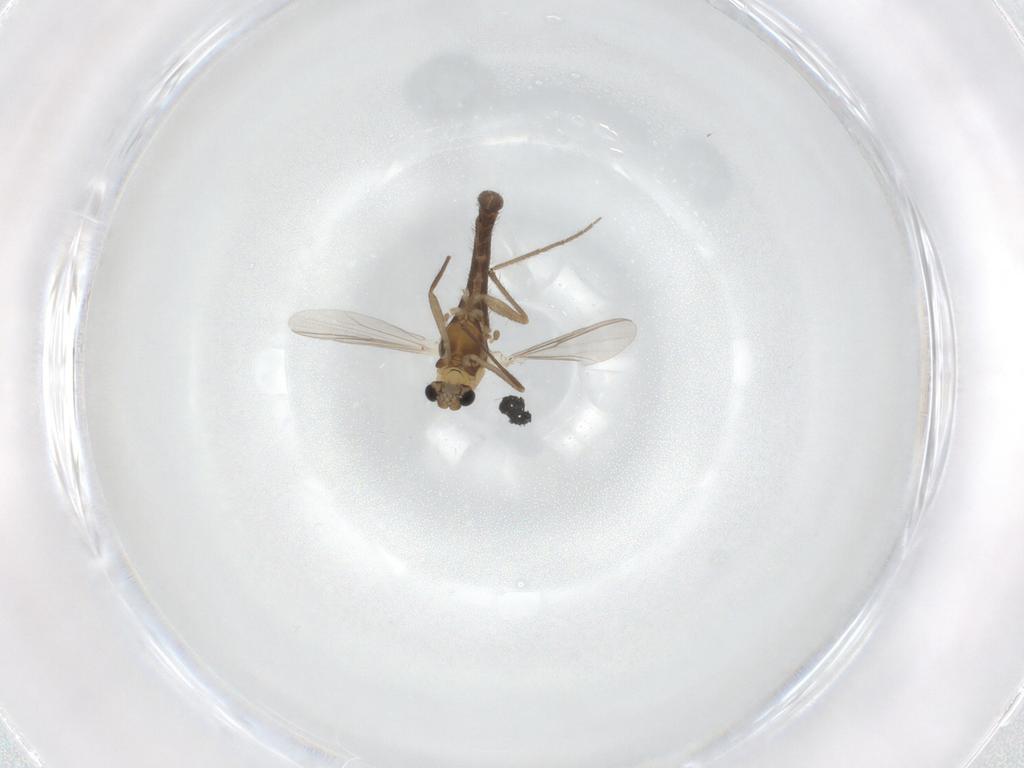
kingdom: Animalia
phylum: Arthropoda
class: Insecta
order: Diptera
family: Chironomidae
